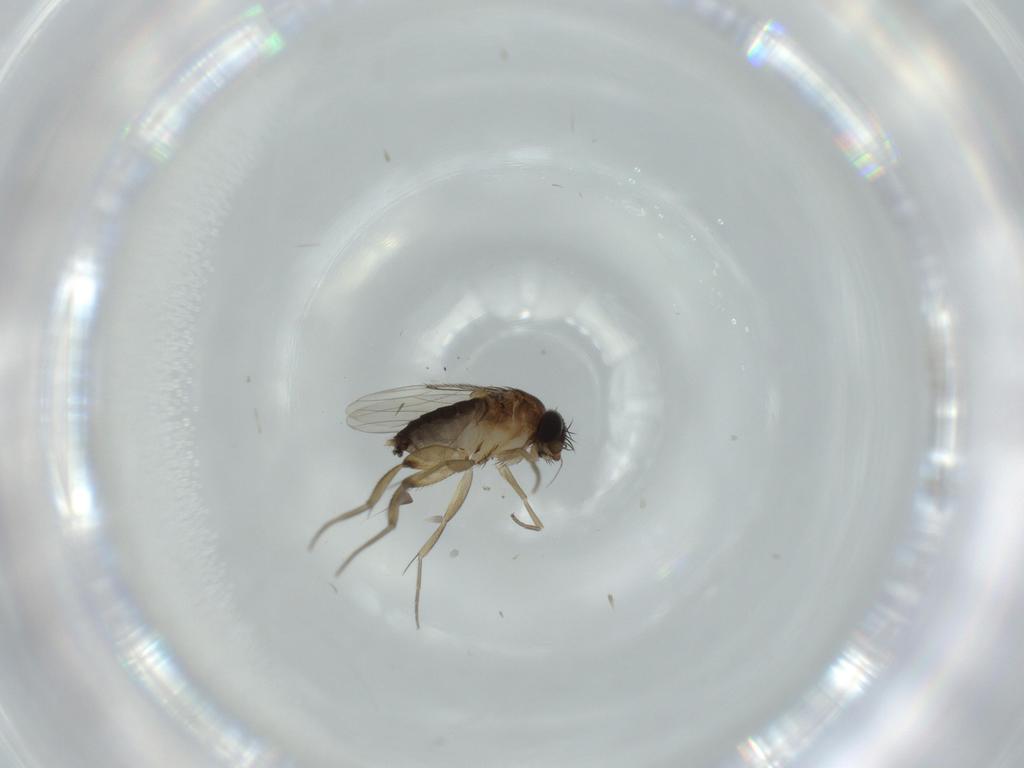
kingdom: Animalia
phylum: Arthropoda
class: Insecta
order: Diptera
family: Phoridae
